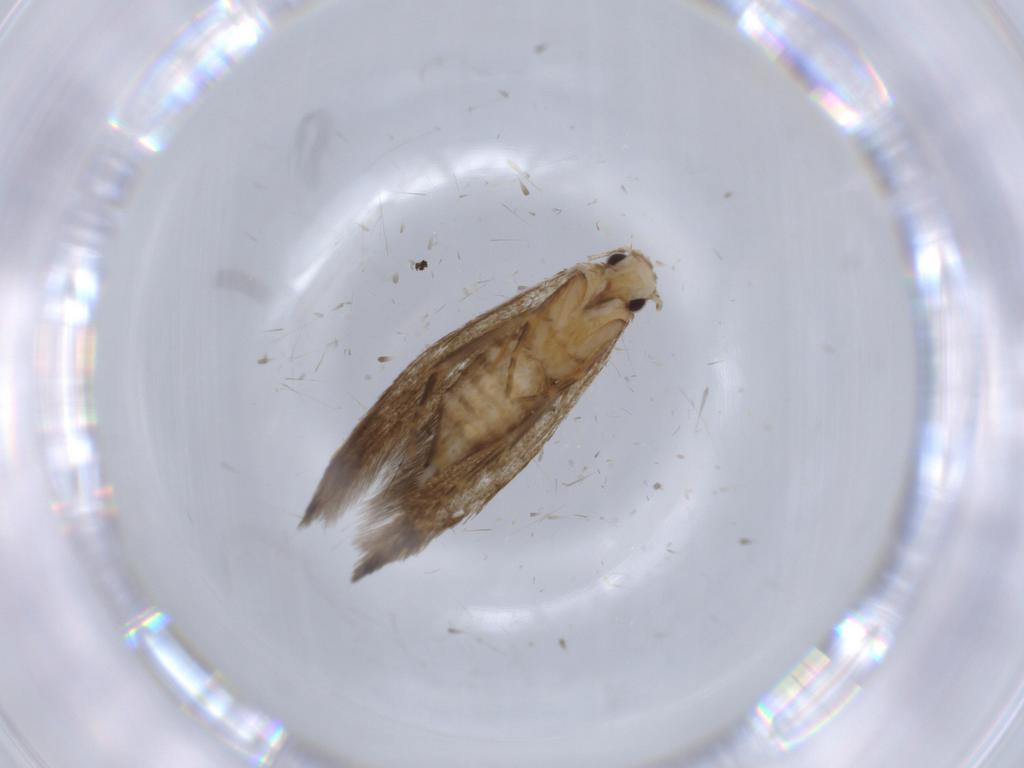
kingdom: Animalia
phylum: Arthropoda
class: Insecta
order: Lepidoptera
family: Tineidae
